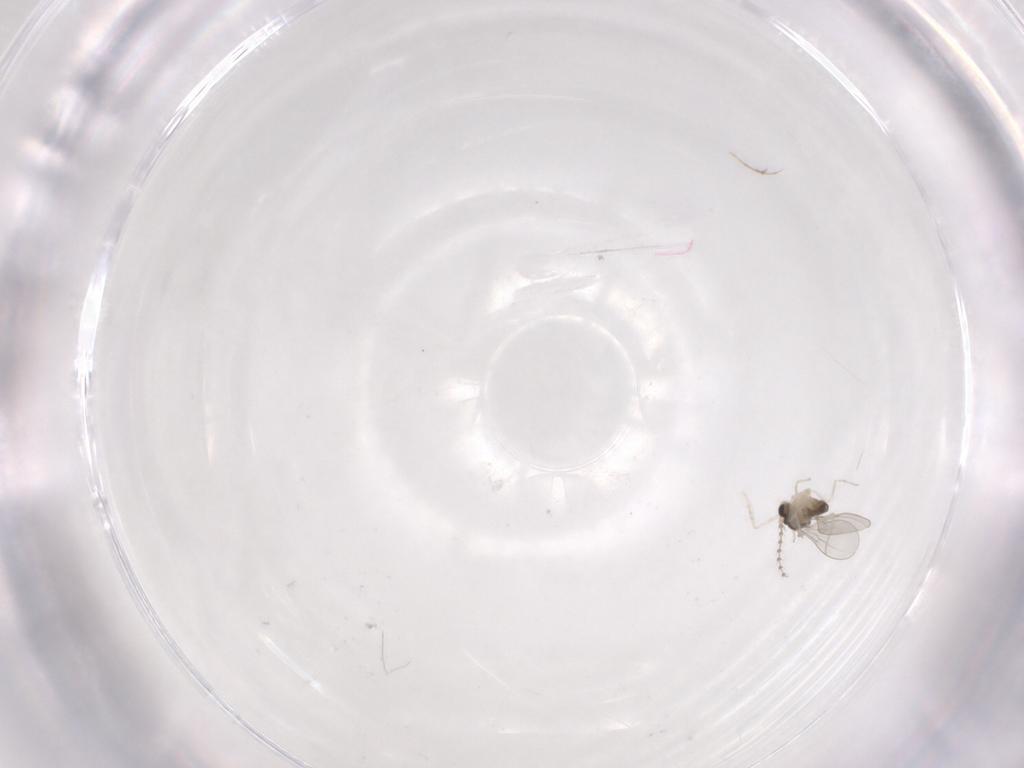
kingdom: Animalia
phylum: Arthropoda
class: Insecta
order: Diptera
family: Cecidomyiidae
